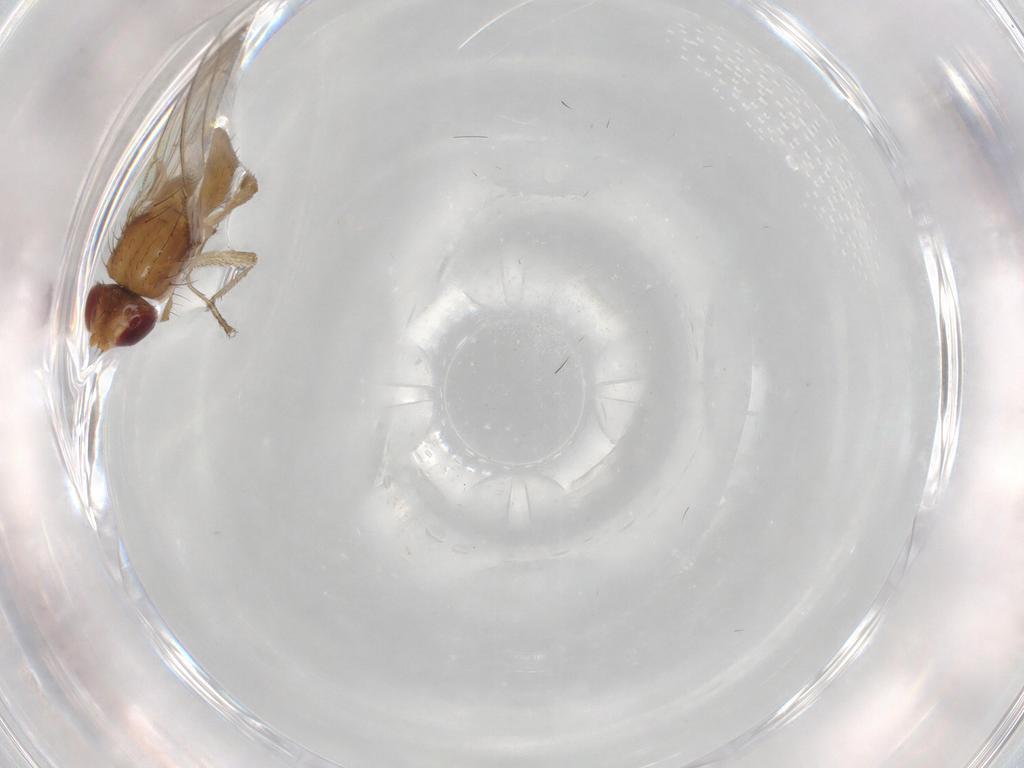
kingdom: Animalia
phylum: Arthropoda
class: Insecta
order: Diptera
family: Drosophilidae
